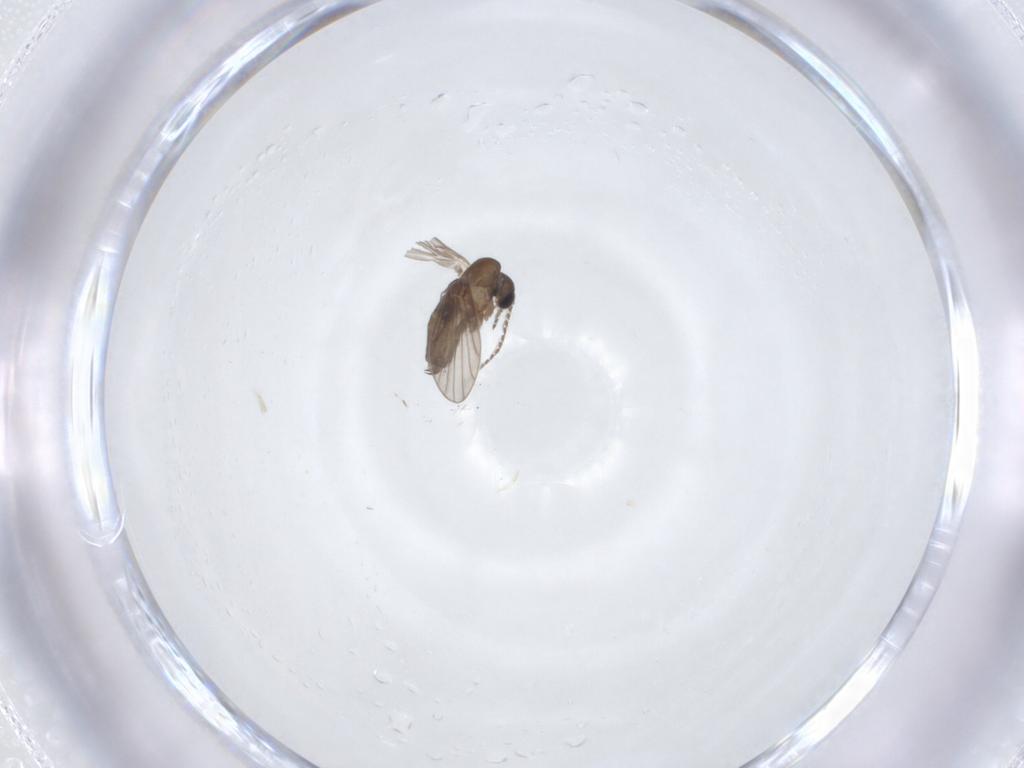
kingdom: Animalia
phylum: Arthropoda
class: Insecta
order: Diptera
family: Psychodidae
